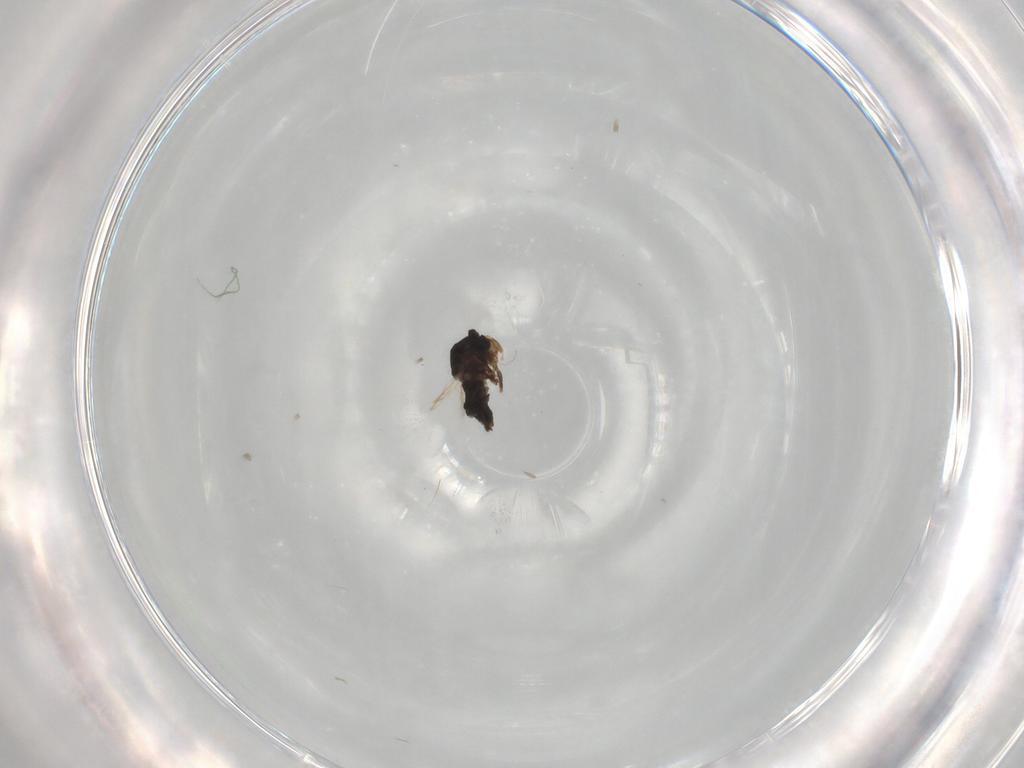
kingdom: Animalia
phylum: Arthropoda
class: Insecta
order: Diptera
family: Scatopsidae
